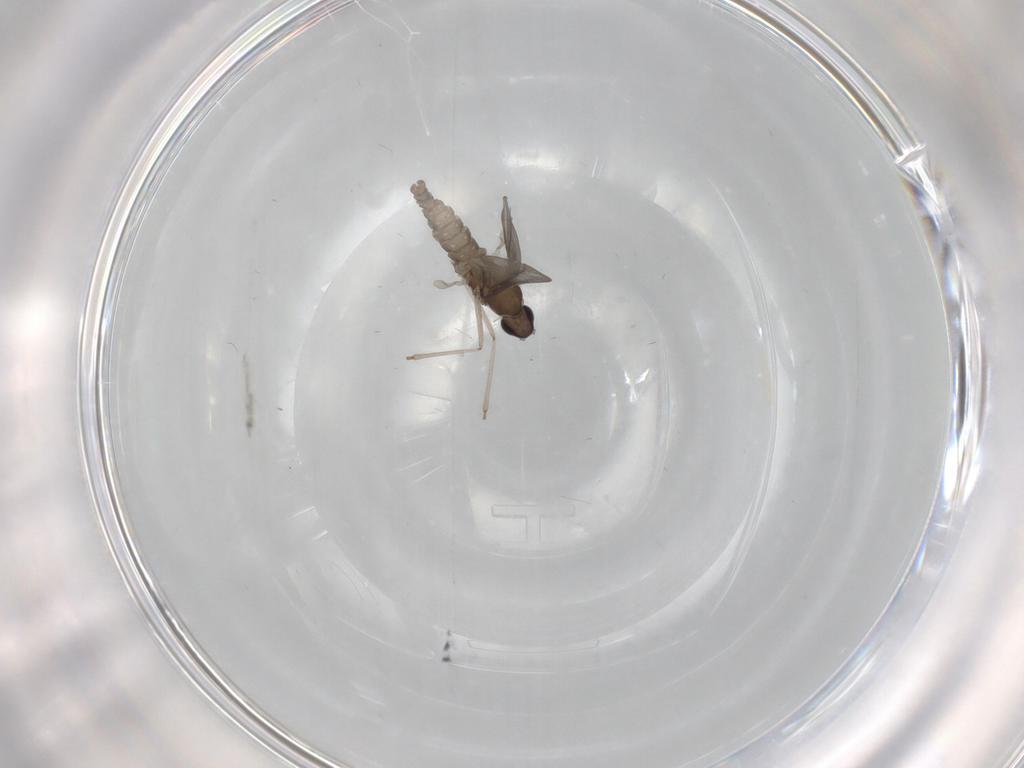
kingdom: Animalia
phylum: Arthropoda
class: Insecta
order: Diptera
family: Cecidomyiidae
